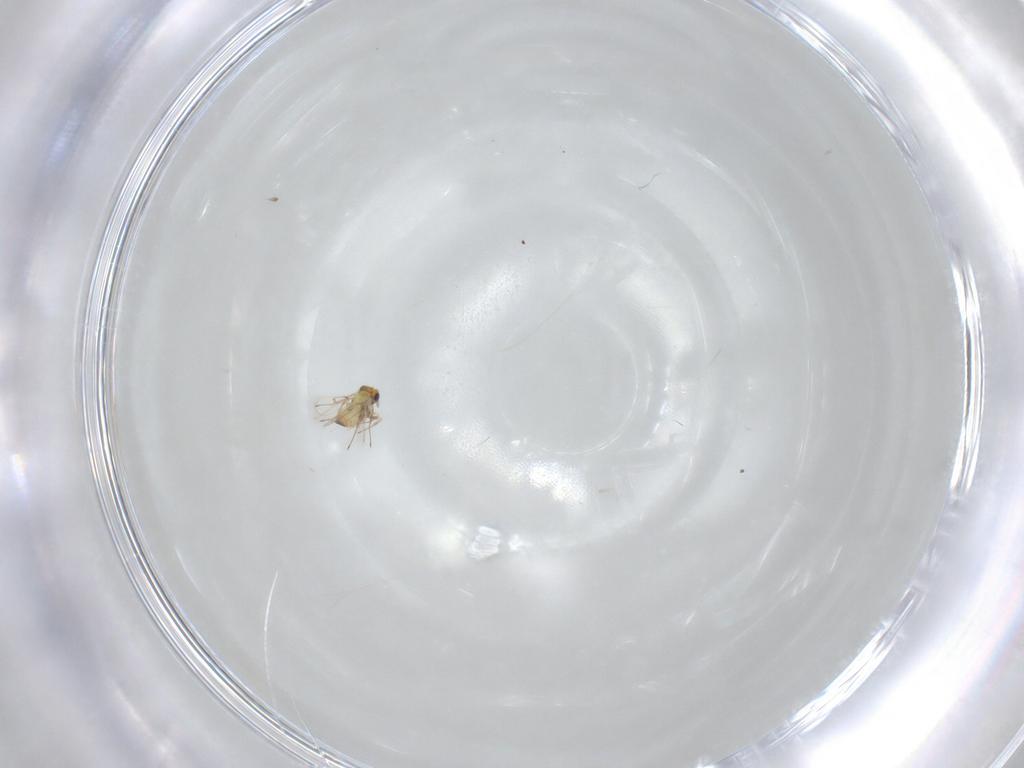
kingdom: Animalia
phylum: Arthropoda
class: Insecta
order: Hymenoptera
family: Trichogrammatidae
